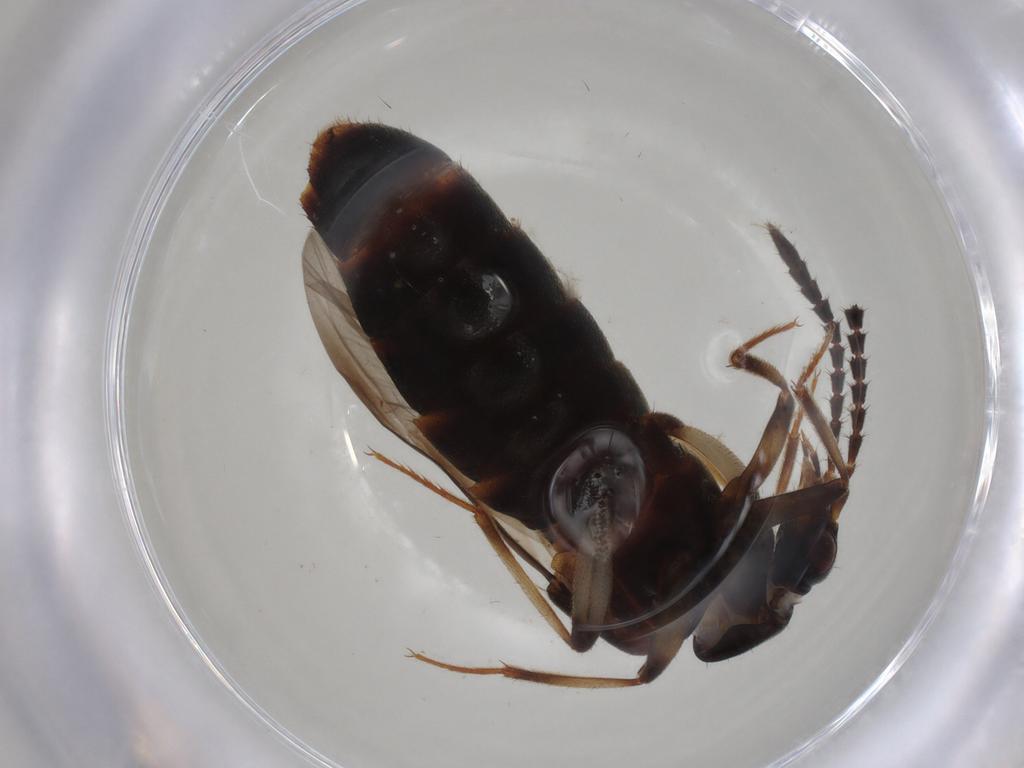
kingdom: Animalia
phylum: Arthropoda
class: Insecta
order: Coleoptera
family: Staphylinidae
